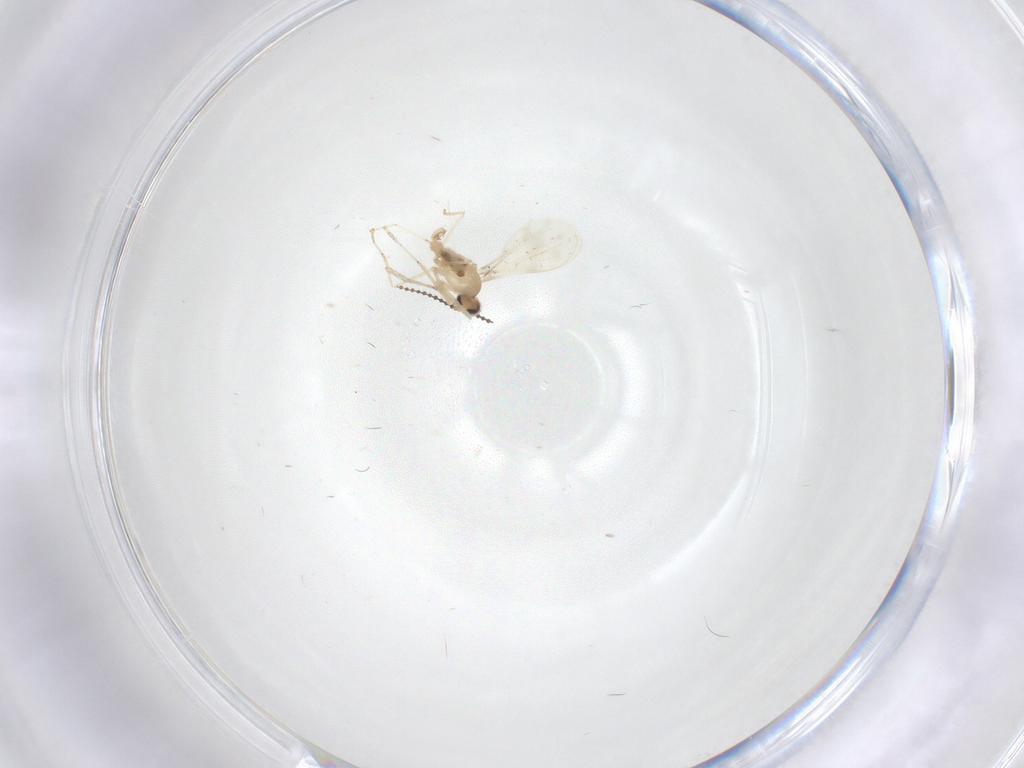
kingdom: Animalia
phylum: Arthropoda
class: Insecta
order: Diptera
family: Cecidomyiidae
